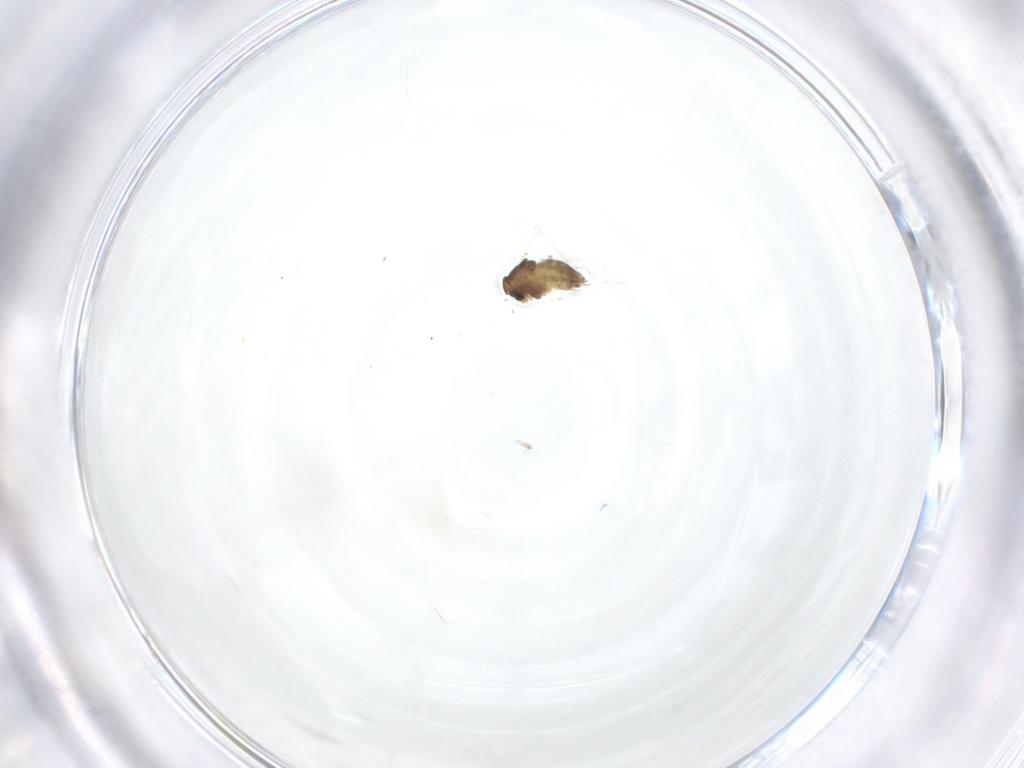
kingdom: Animalia
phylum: Arthropoda
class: Insecta
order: Diptera
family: Chironomidae
